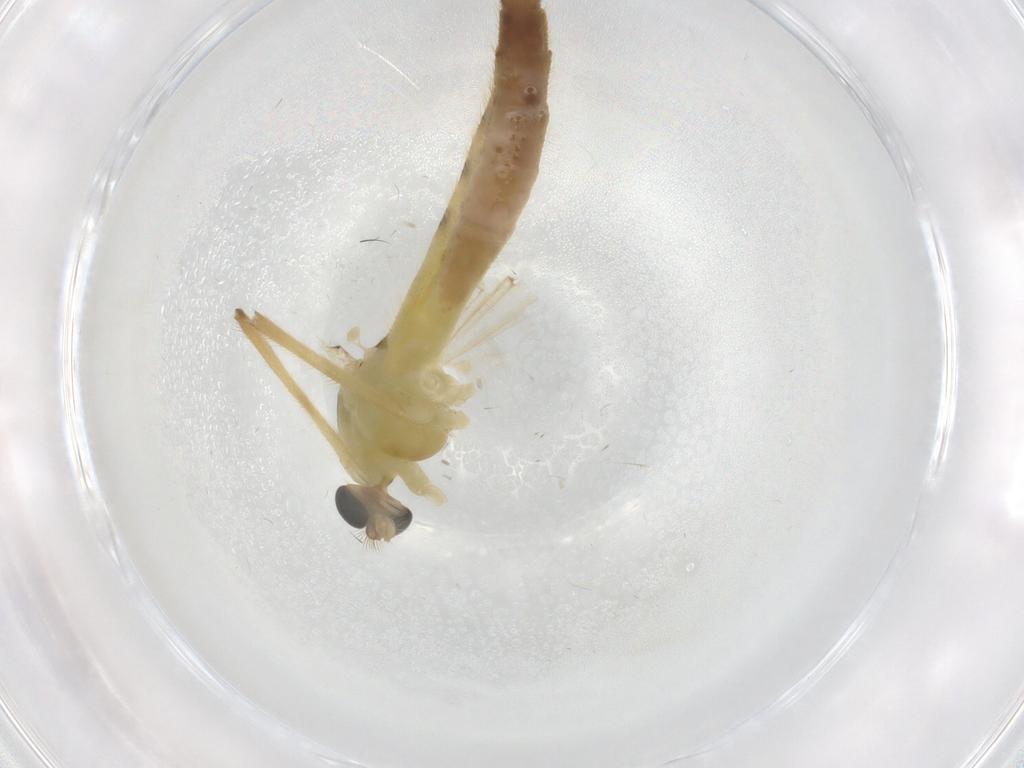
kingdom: Animalia
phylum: Arthropoda
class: Insecta
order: Diptera
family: Chironomidae
